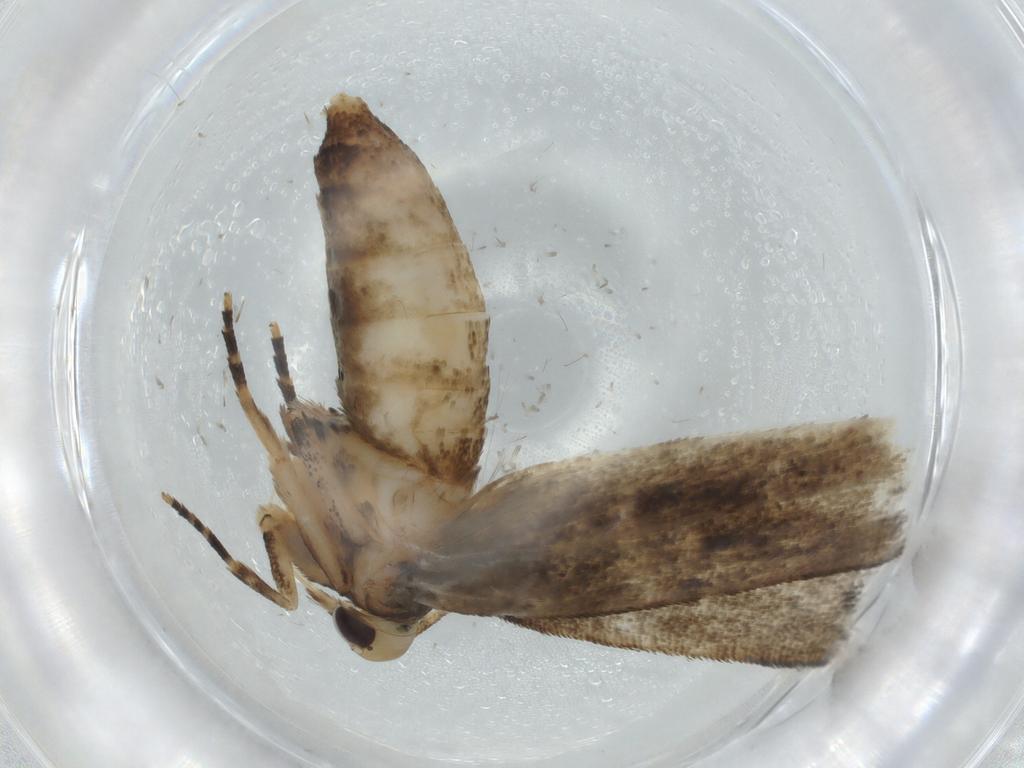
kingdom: Animalia
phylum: Arthropoda
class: Insecta
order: Lepidoptera
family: Momphidae
